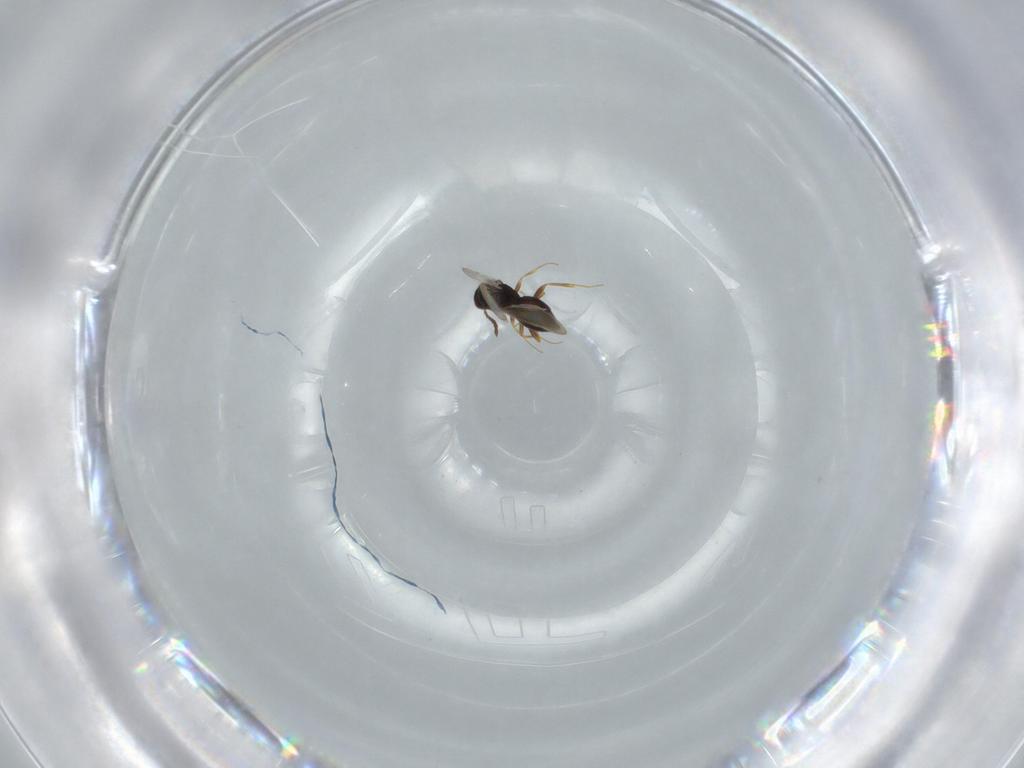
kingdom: Animalia
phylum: Arthropoda
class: Insecta
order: Hymenoptera
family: Ichneumonidae
